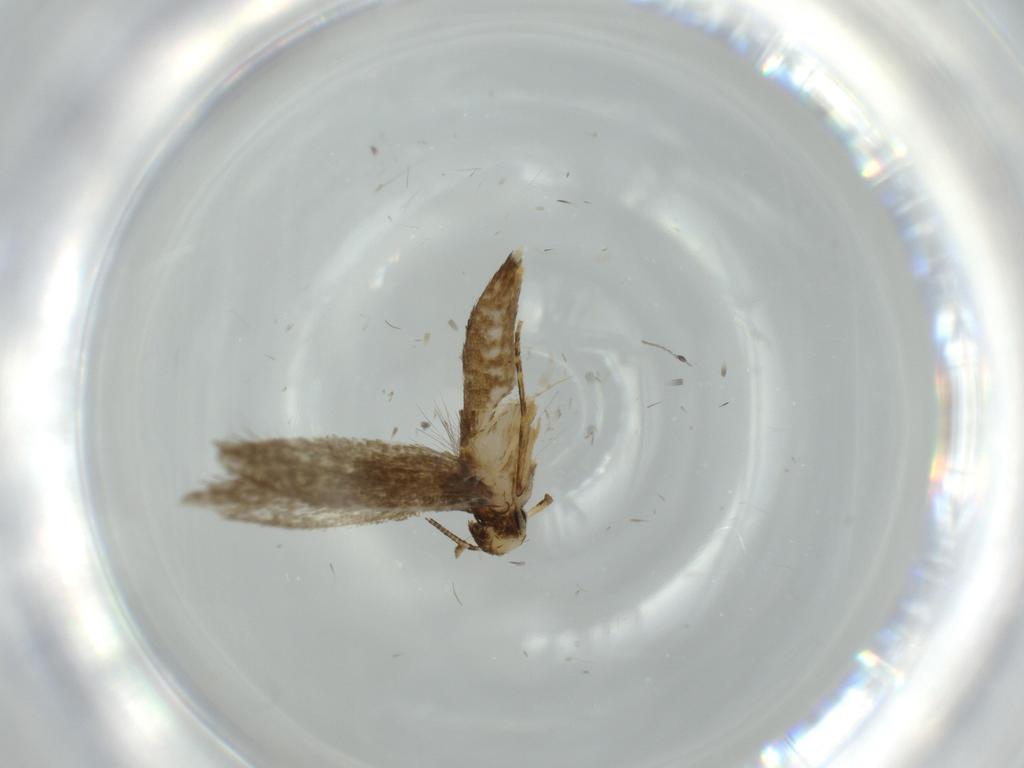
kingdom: Animalia
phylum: Arthropoda
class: Insecta
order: Lepidoptera
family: Tineidae
